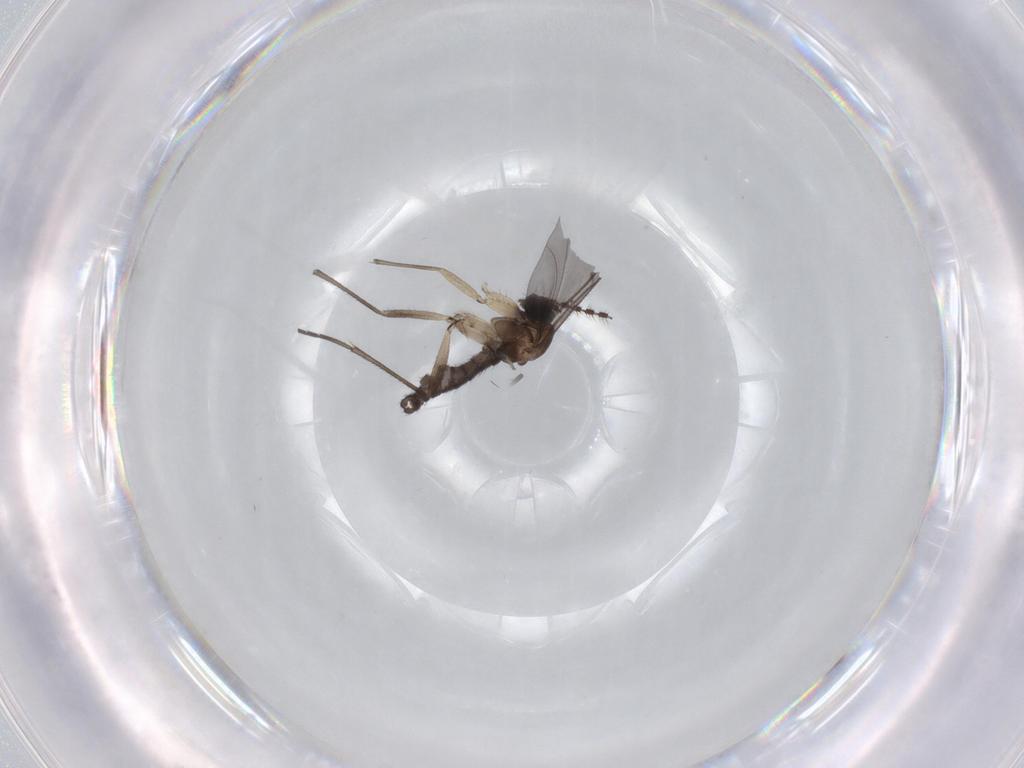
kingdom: Animalia
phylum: Arthropoda
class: Insecta
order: Diptera
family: Sciaridae
